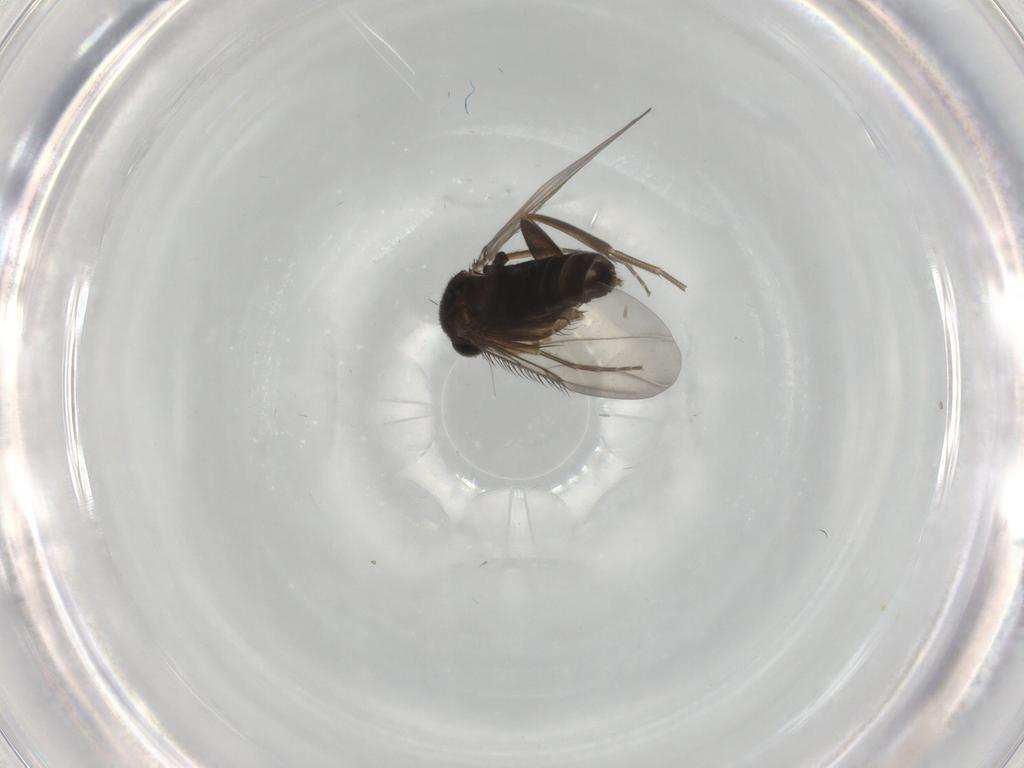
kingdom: Animalia
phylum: Arthropoda
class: Insecta
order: Diptera
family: Phoridae
